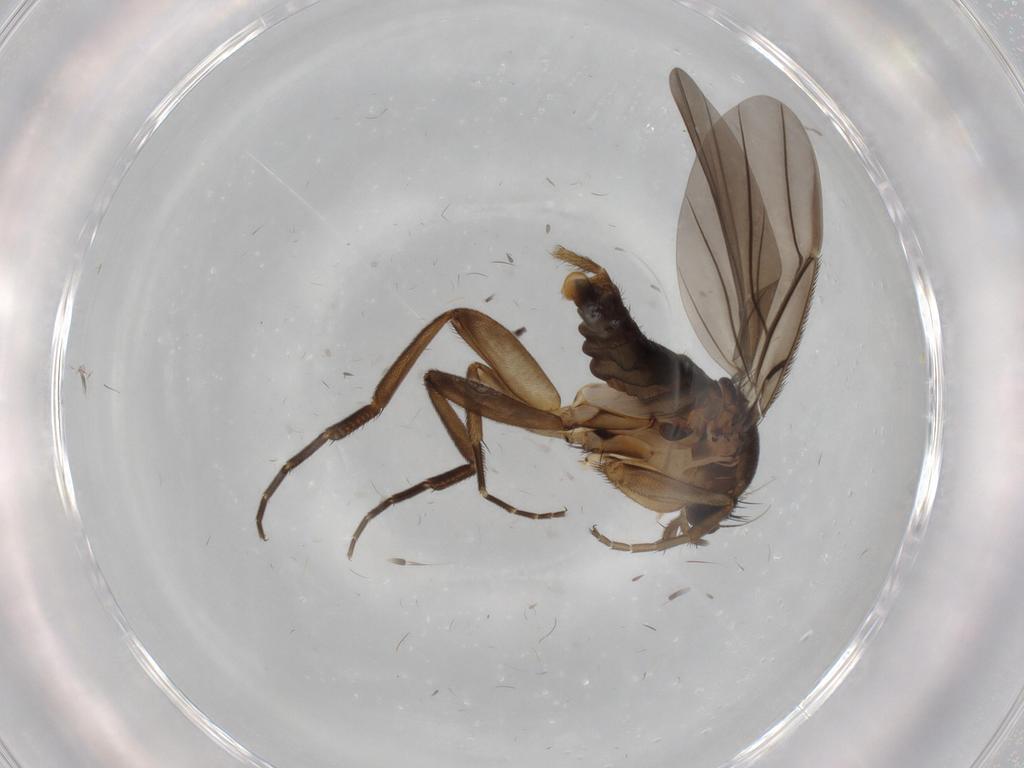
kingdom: Animalia
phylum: Arthropoda
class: Insecta
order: Diptera
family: Phoridae
